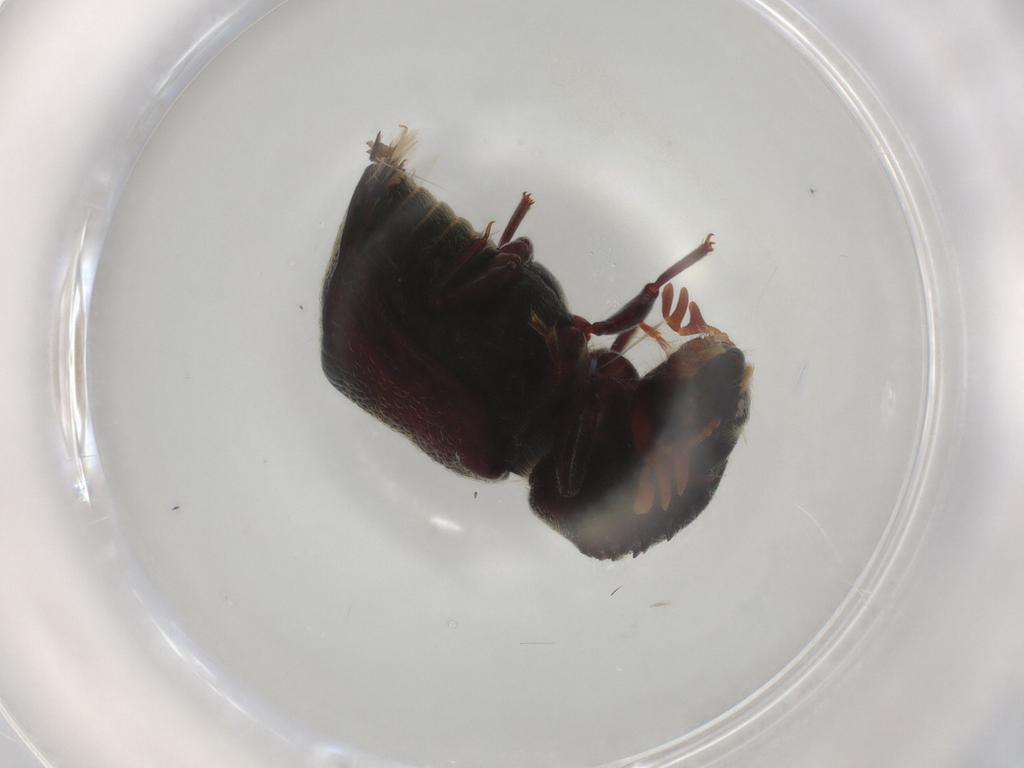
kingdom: Animalia
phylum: Arthropoda
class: Insecta
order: Coleoptera
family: Bostrichidae
